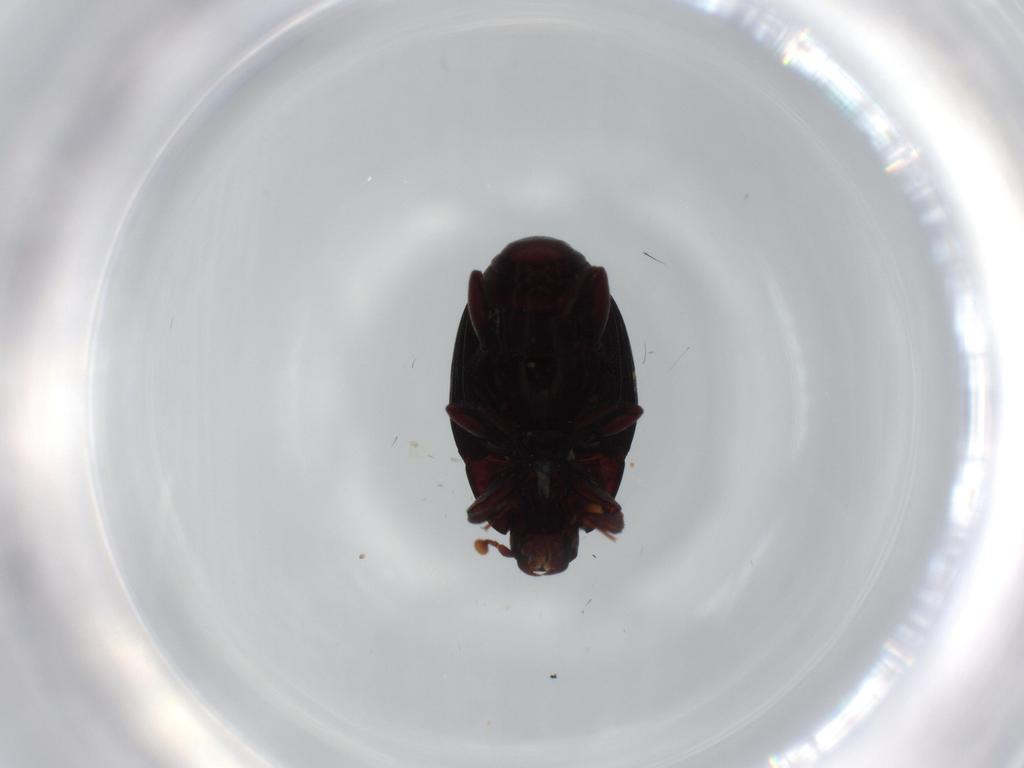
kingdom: Animalia
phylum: Arthropoda
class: Insecta
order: Coleoptera
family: Histeridae
